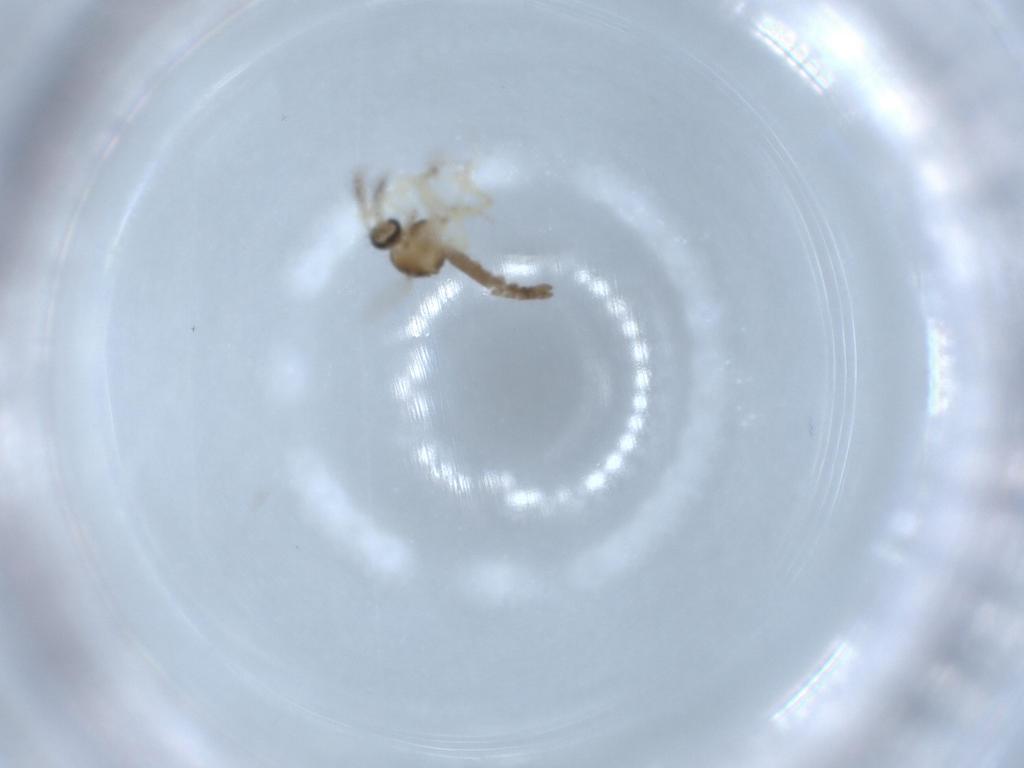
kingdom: Animalia
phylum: Arthropoda
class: Insecta
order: Diptera
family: Ceratopogonidae
